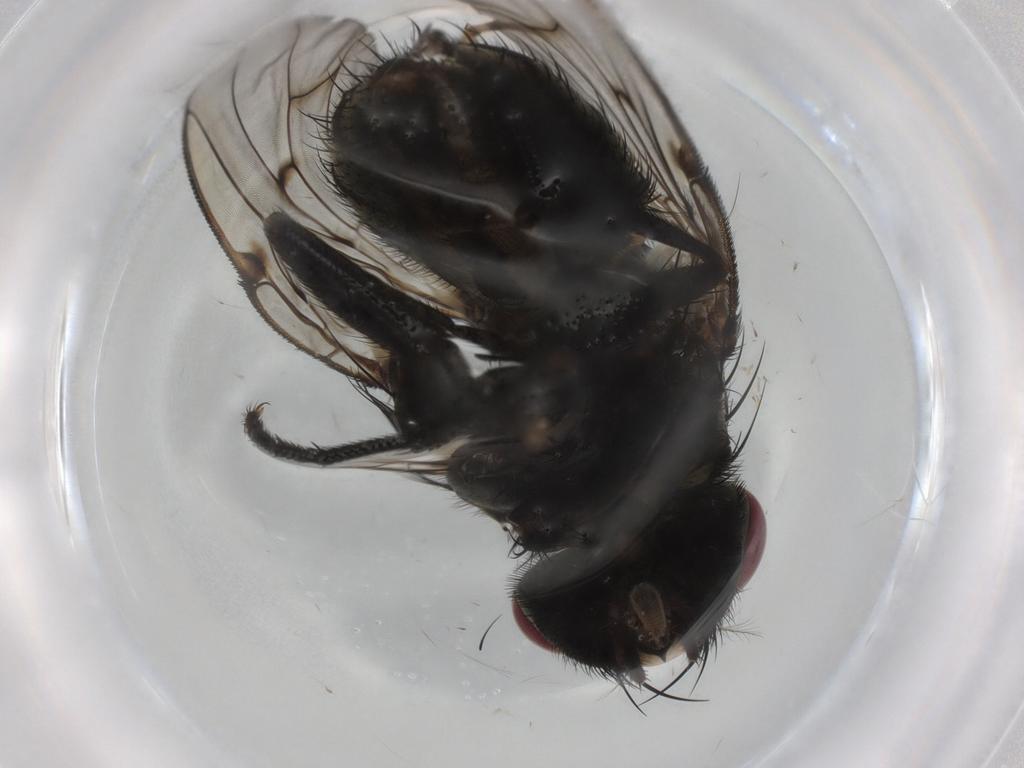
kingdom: Animalia
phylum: Arthropoda
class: Insecta
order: Diptera
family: Muscidae
